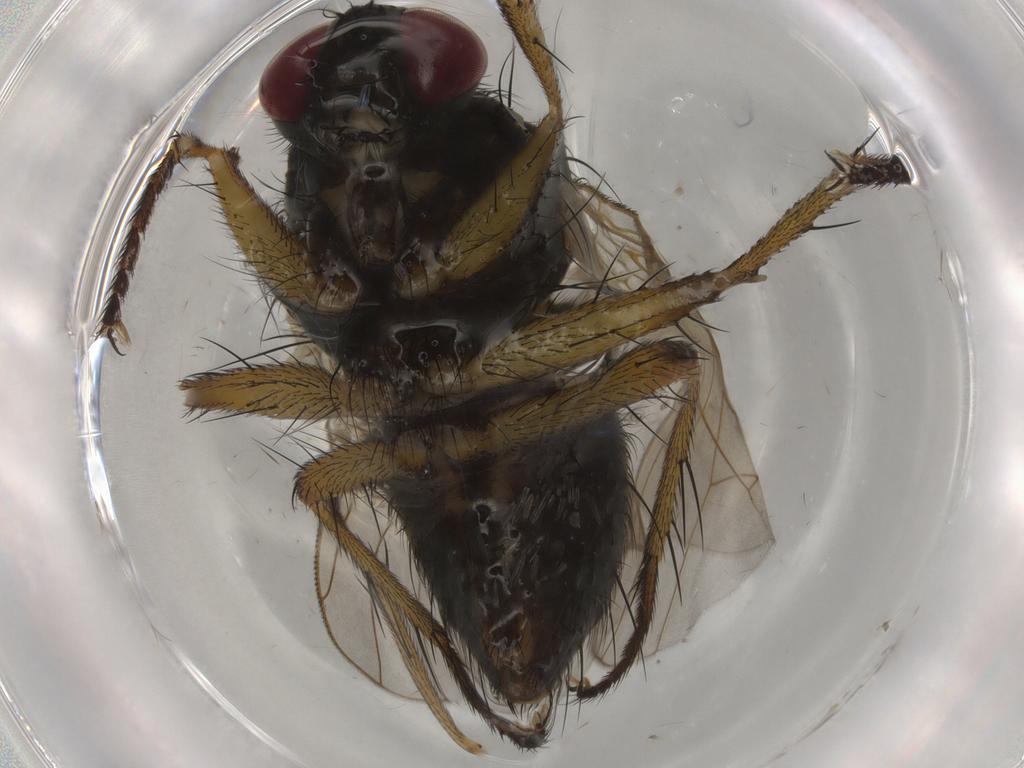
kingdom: Animalia
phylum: Arthropoda
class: Insecta
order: Diptera
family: Muscidae
